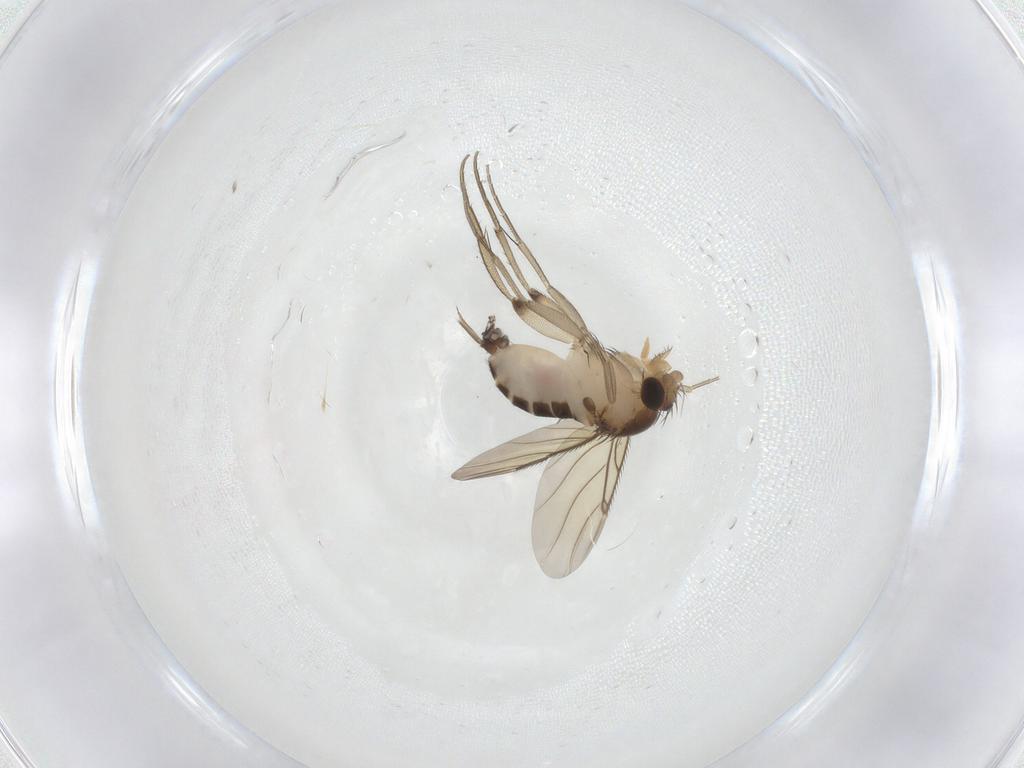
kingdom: Animalia
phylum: Arthropoda
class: Insecta
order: Diptera
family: Phoridae
